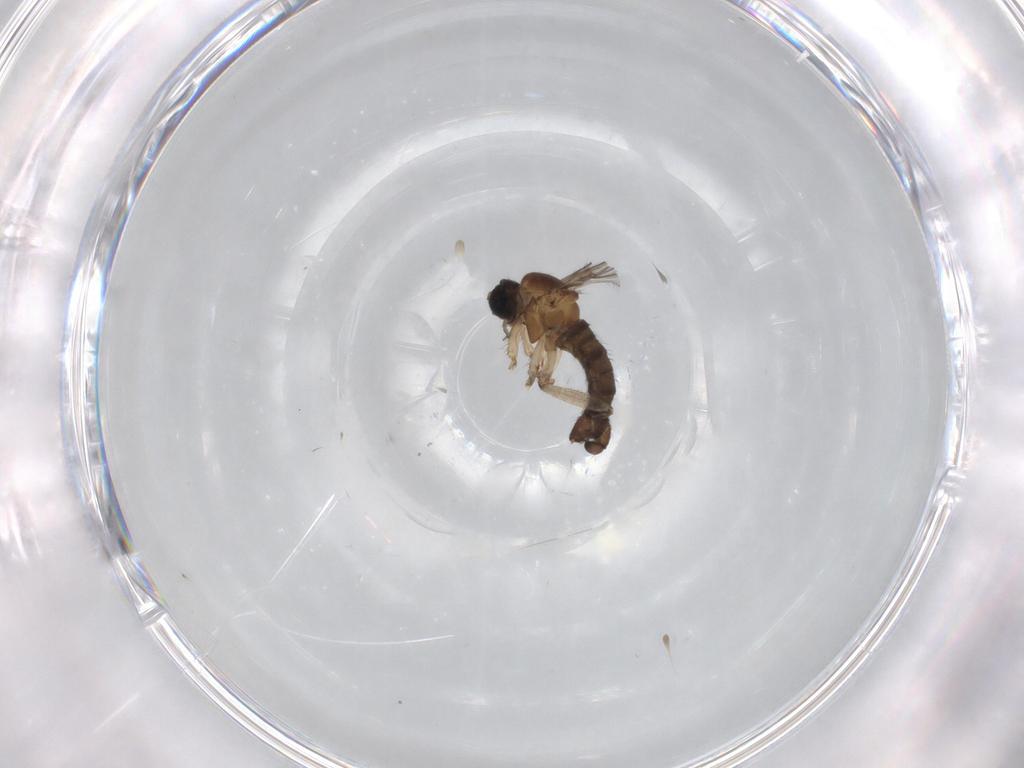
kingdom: Animalia
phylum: Arthropoda
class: Insecta
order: Diptera
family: Sciaridae
